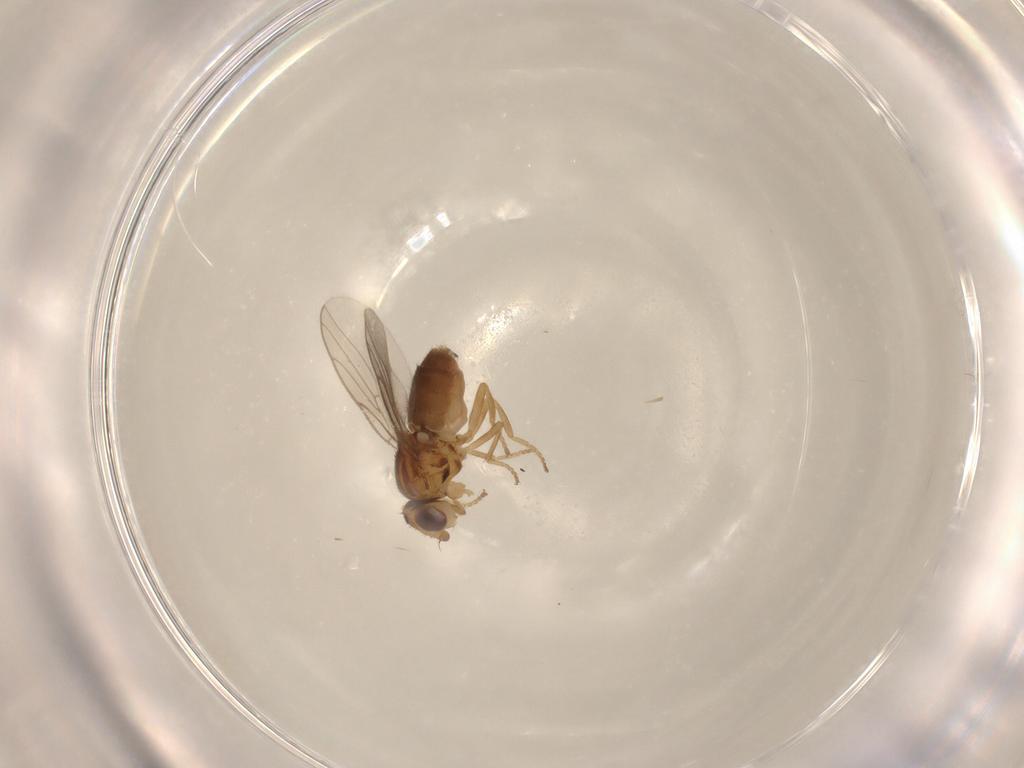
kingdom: Animalia
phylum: Arthropoda
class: Insecta
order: Diptera
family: Chloropidae
